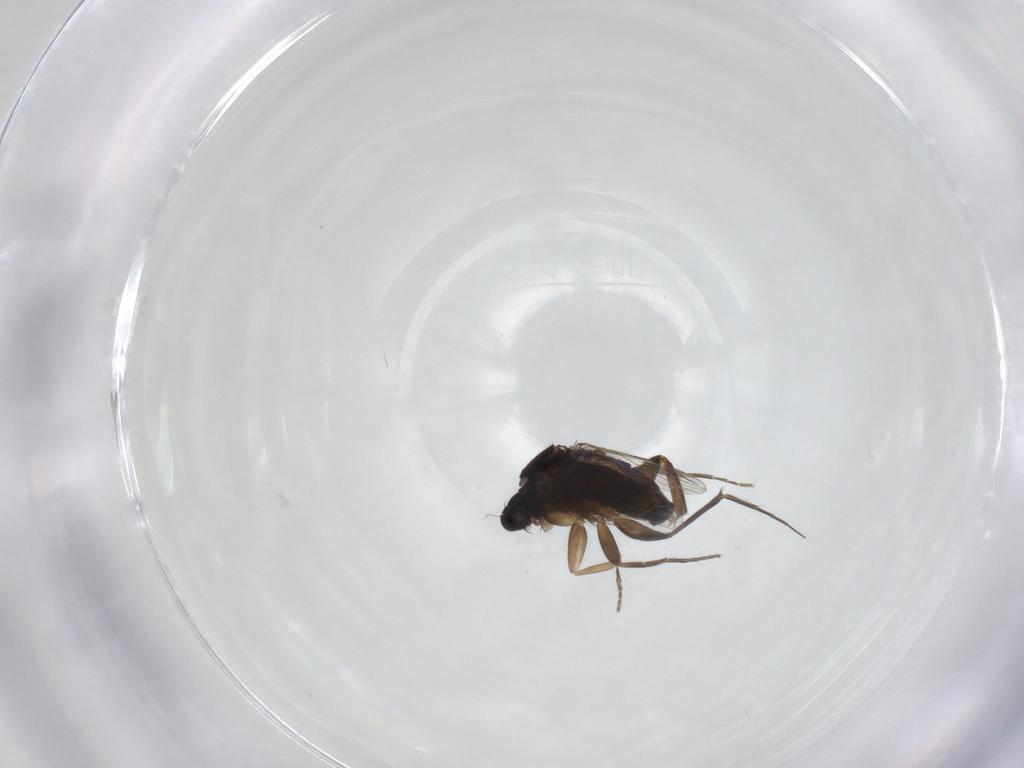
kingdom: Animalia
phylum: Arthropoda
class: Insecta
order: Diptera
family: Phoridae
